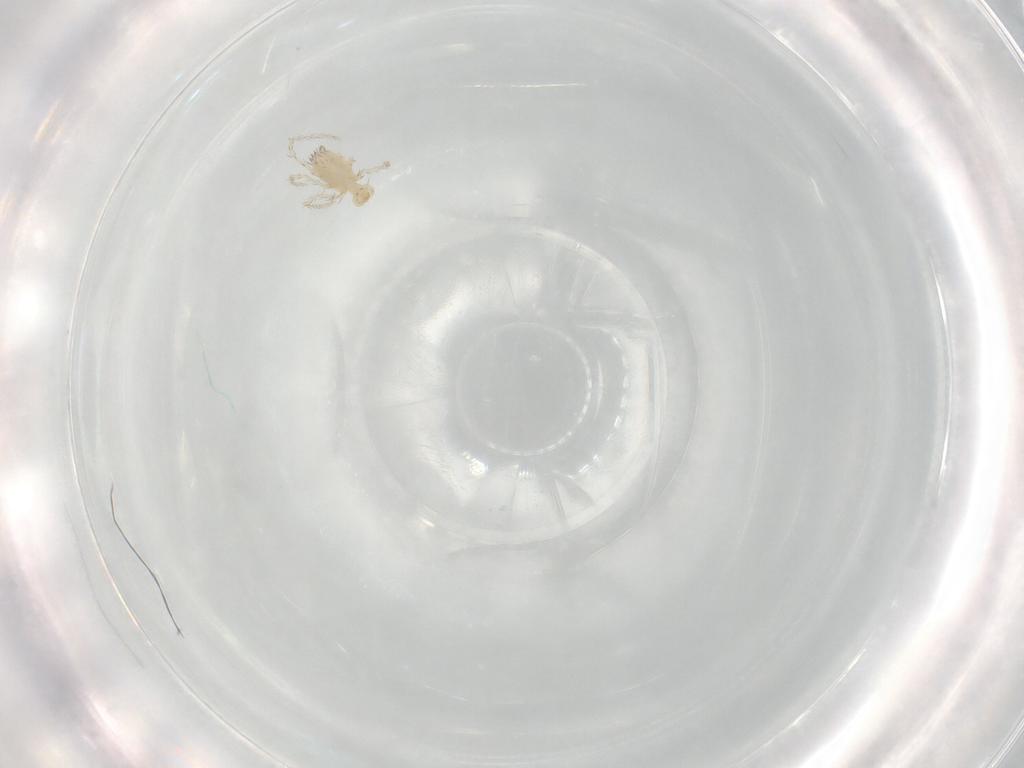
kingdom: Animalia
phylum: Arthropoda
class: Arachnida
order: Trombidiformes
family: Erythraeidae
